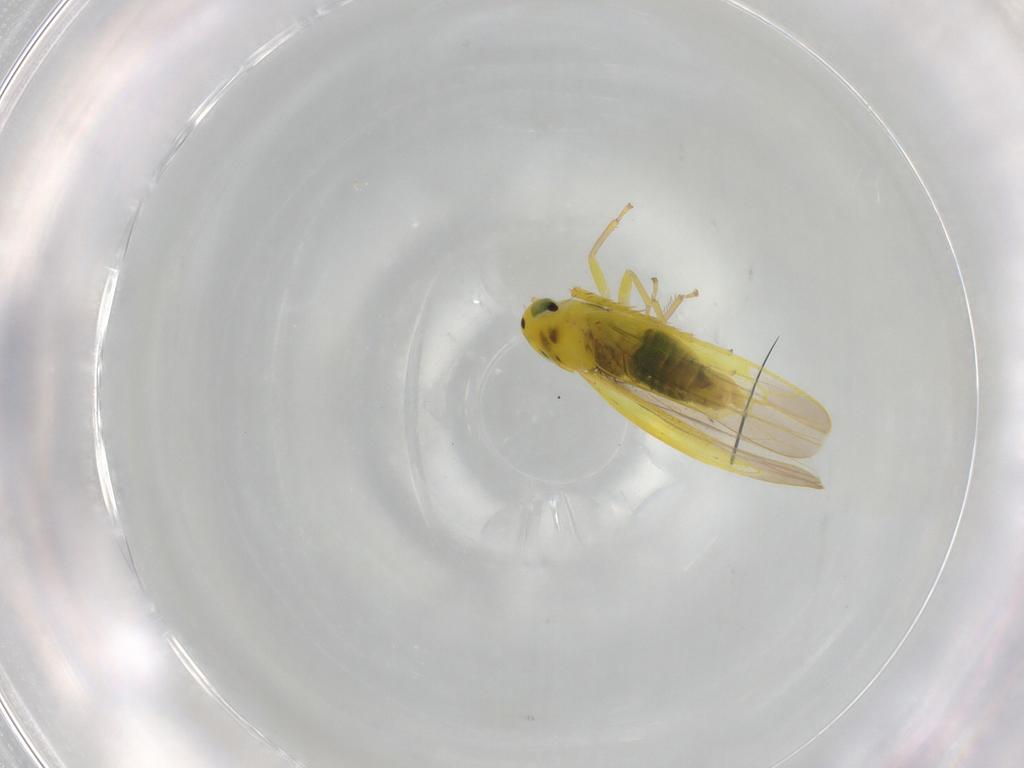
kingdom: Animalia
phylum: Arthropoda
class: Insecta
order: Hemiptera
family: Cicadellidae
